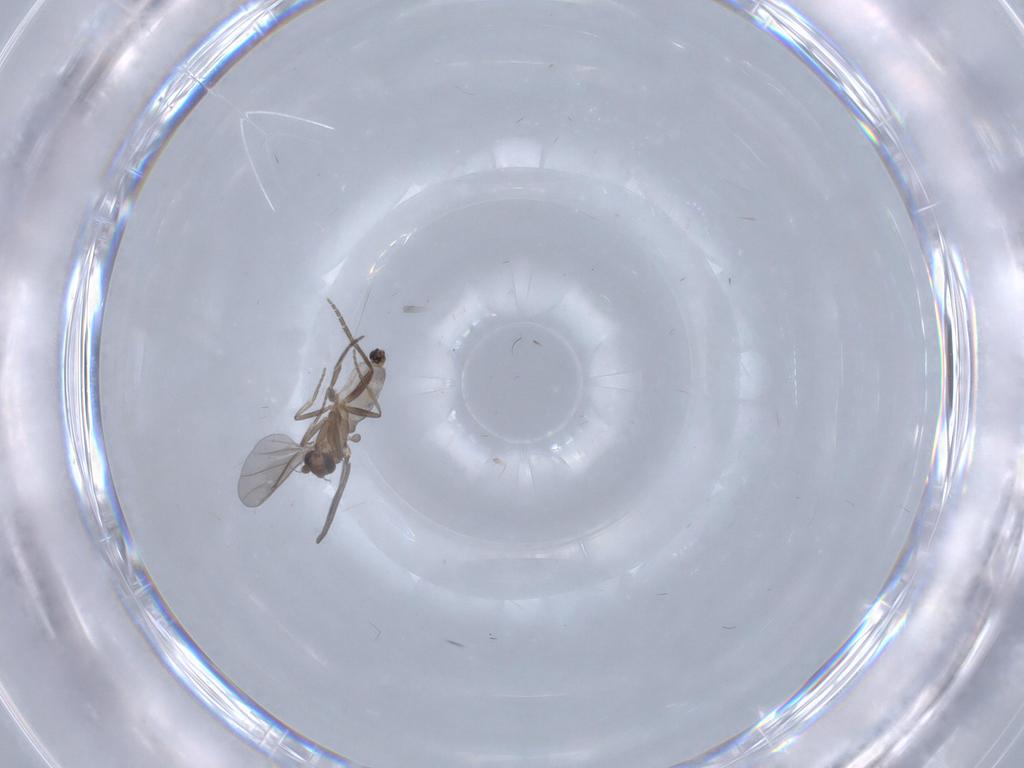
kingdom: Animalia
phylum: Arthropoda
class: Insecta
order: Diptera
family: Phoridae
